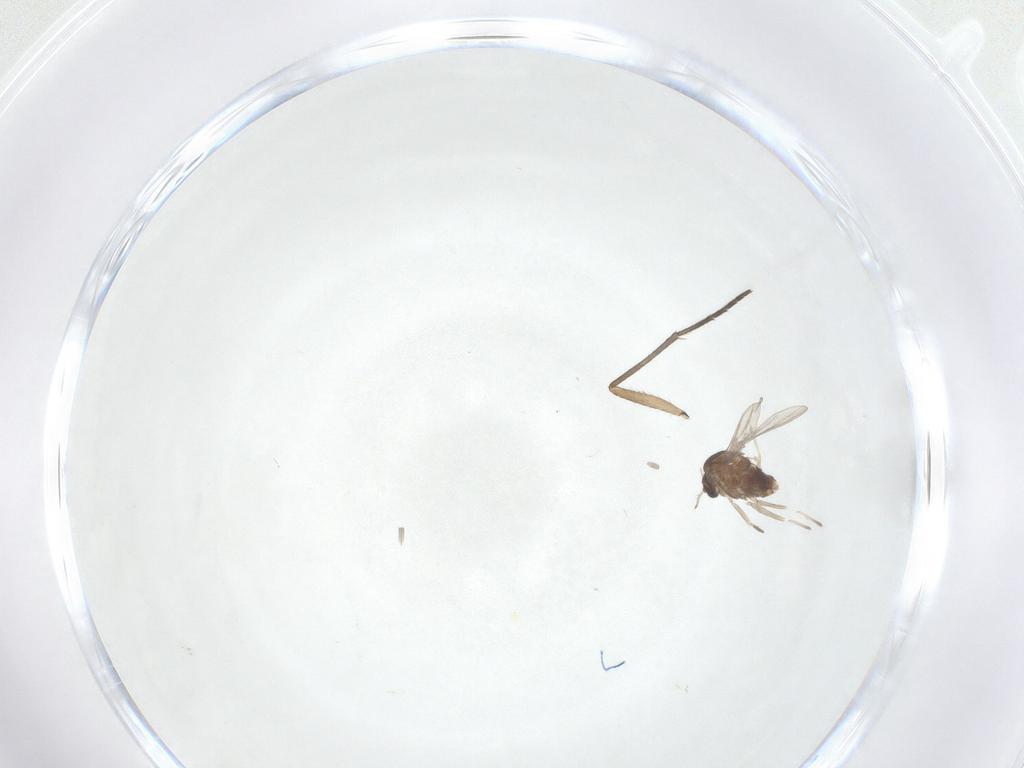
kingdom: Animalia
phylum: Arthropoda
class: Insecta
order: Diptera
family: Sciaridae
